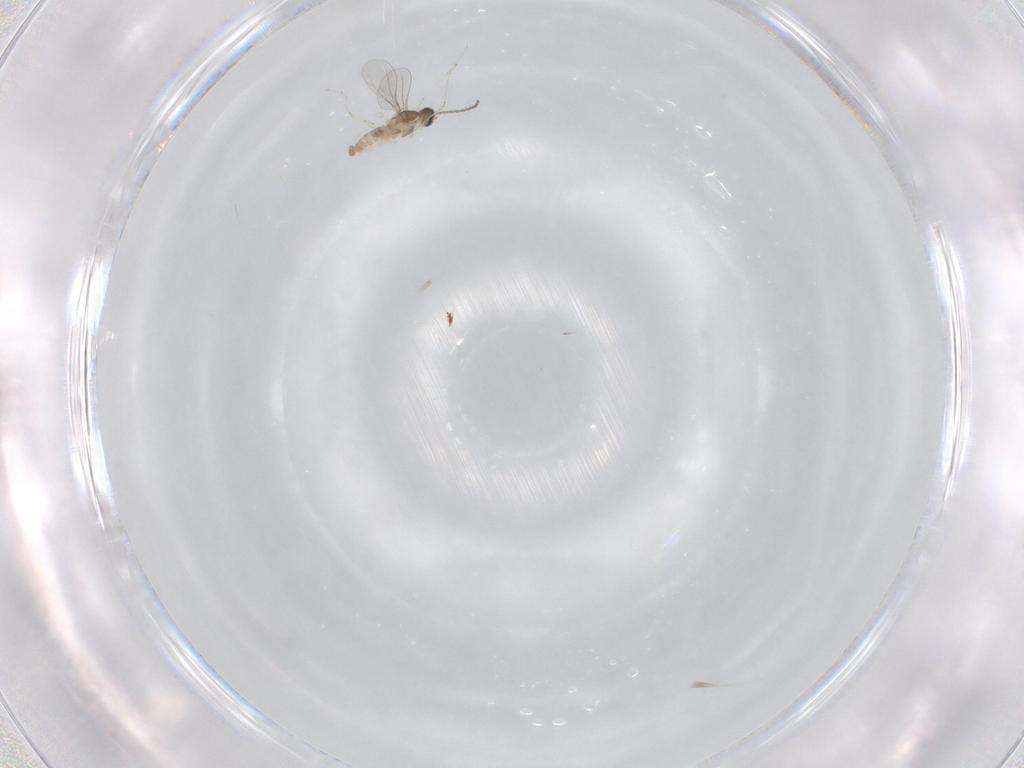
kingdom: Animalia
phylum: Arthropoda
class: Insecta
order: Diptera
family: Cecidomyiidae
